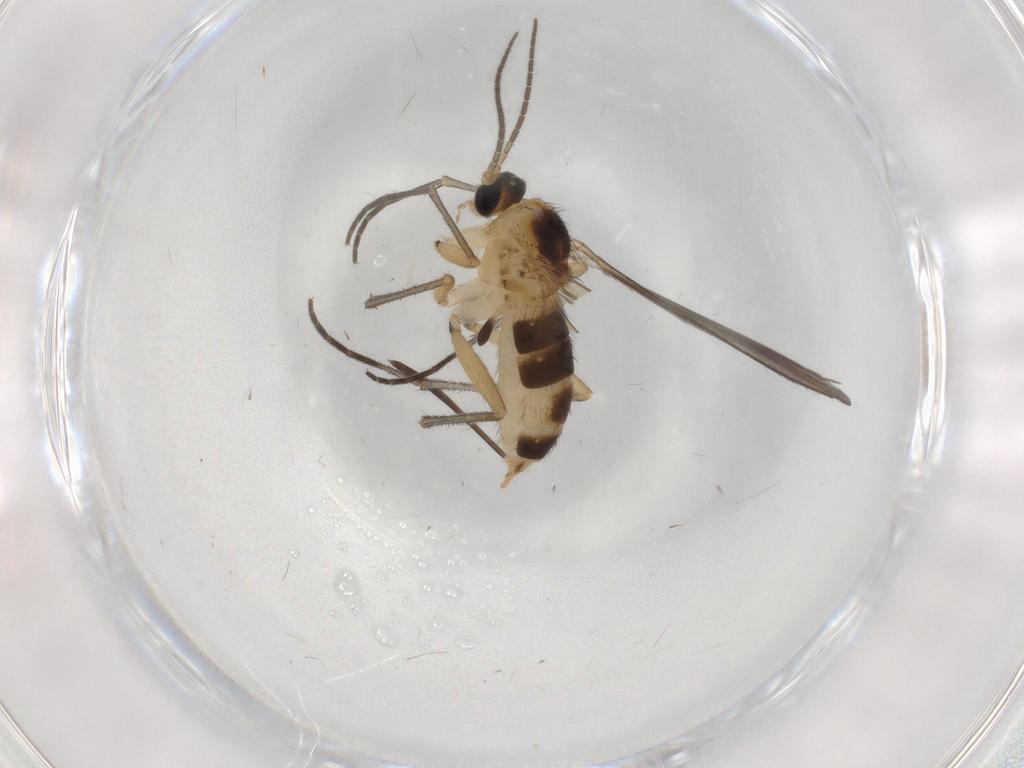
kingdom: Animalia
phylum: Arthropoda
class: Insecta
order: Diptera
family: Sciaridae
